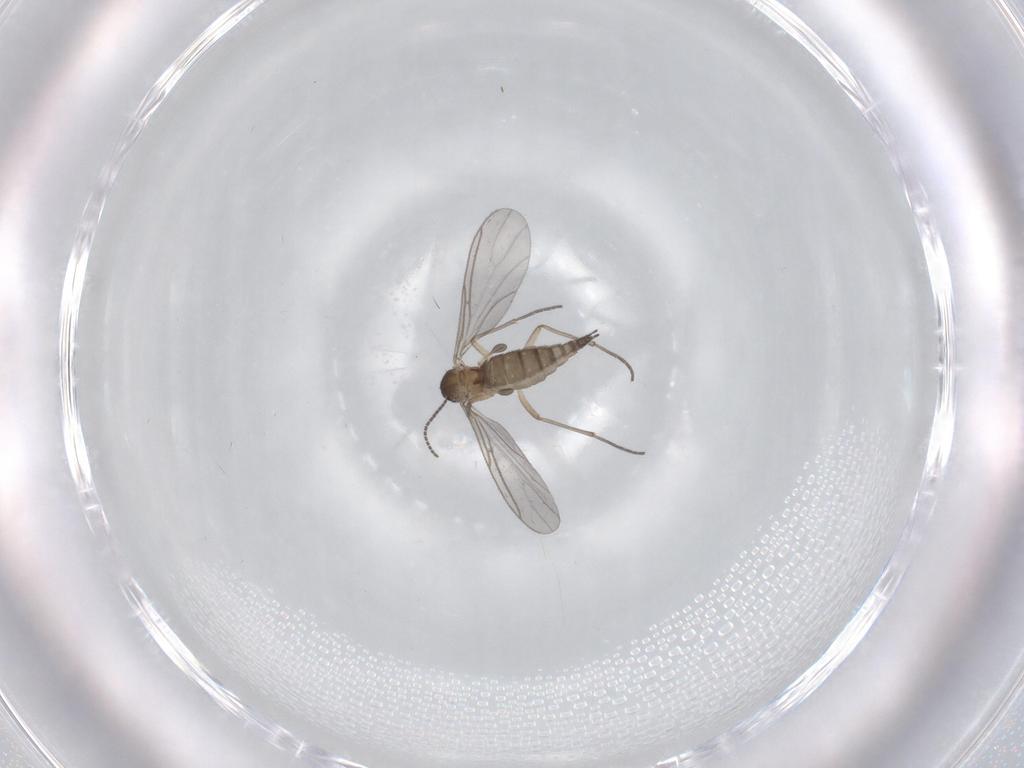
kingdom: Animalia
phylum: Arthropoda
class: Insecta
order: Diptera
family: Sciaridae
